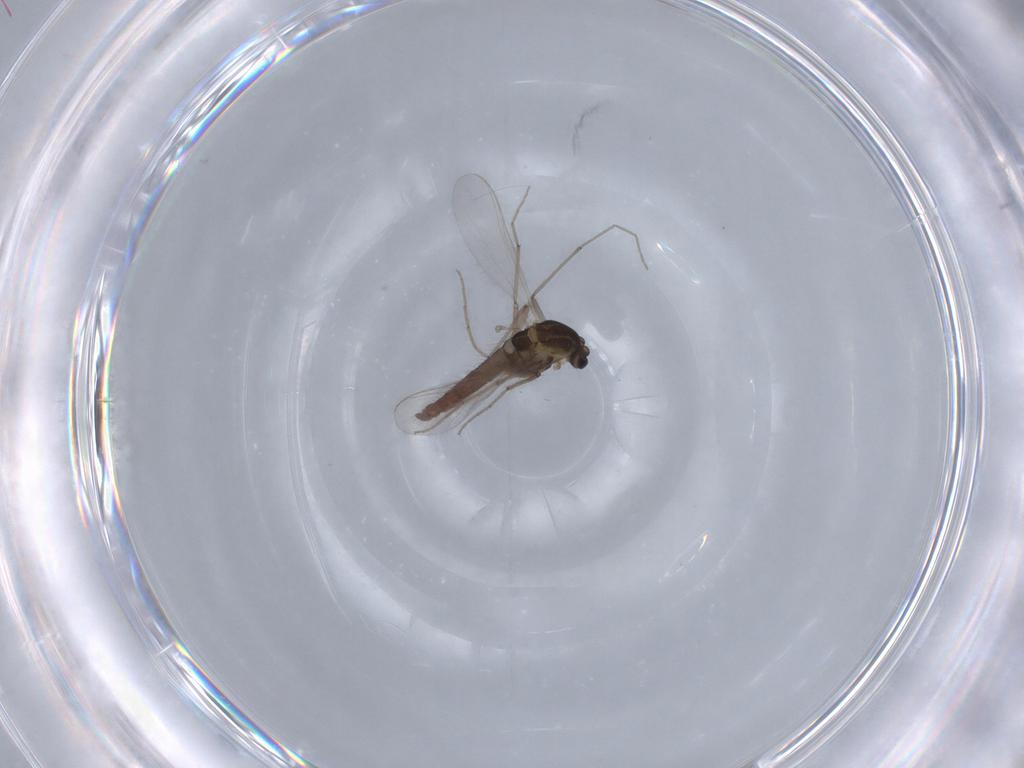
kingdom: Animalia
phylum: Arthropoda
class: Insecta
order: Diptera
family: Chironomidae
